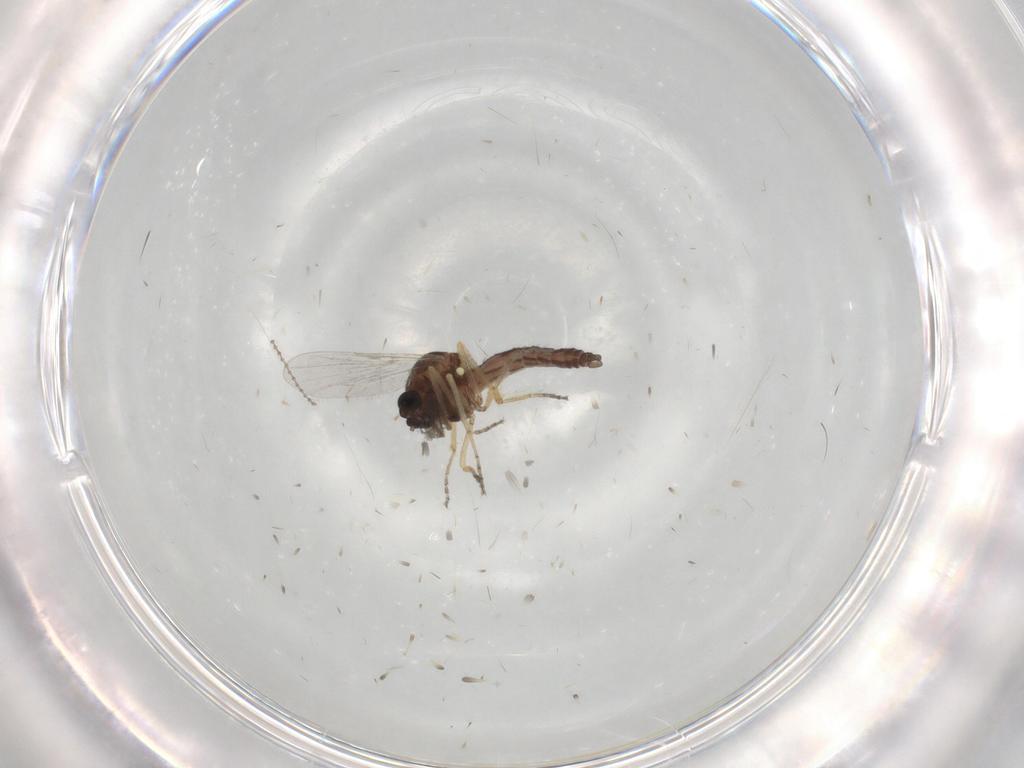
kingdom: Animalia
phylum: Arthropoda
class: Insecta
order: Diptera
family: Ceratopogonidae
